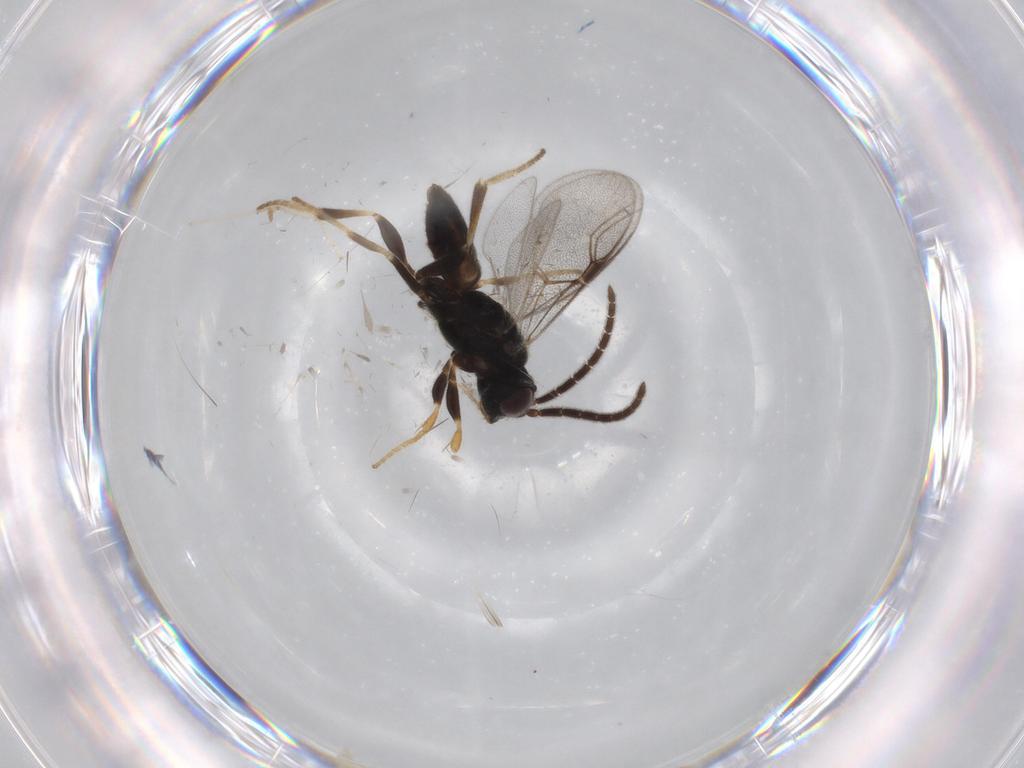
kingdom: Animalia
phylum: Arthropoda
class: Insecta
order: Hymenoptera
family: Dryinidae
